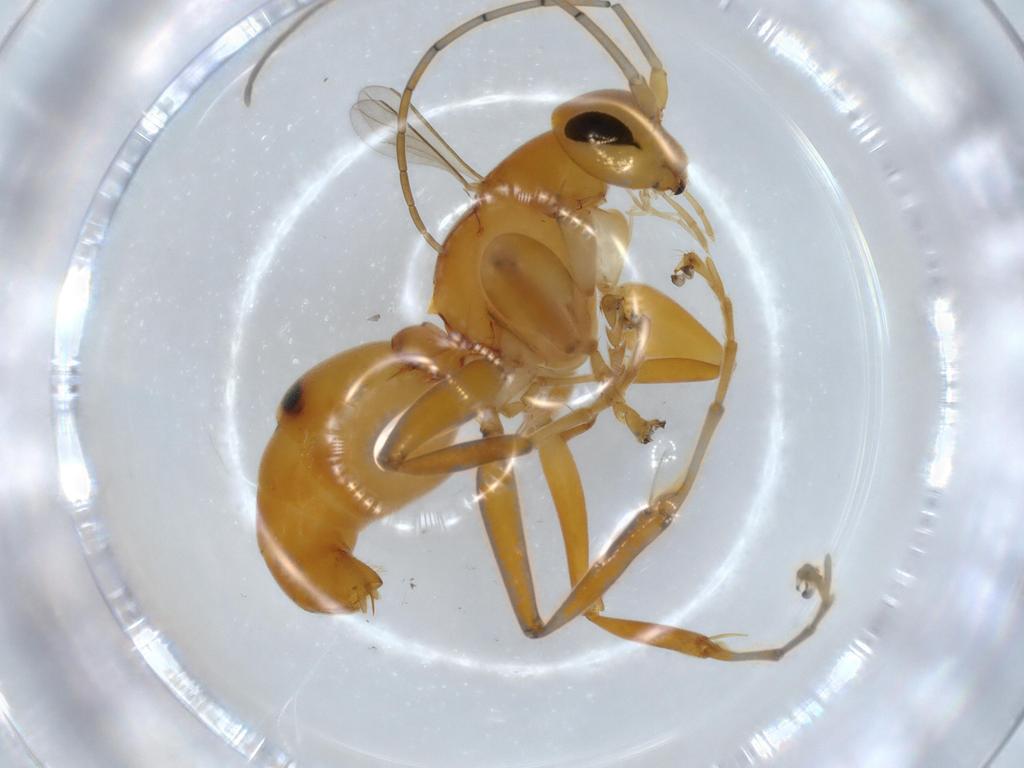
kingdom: Animalia
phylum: Arthropoda
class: Insecta
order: Hymenoptera
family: Rhopalosomatidae
